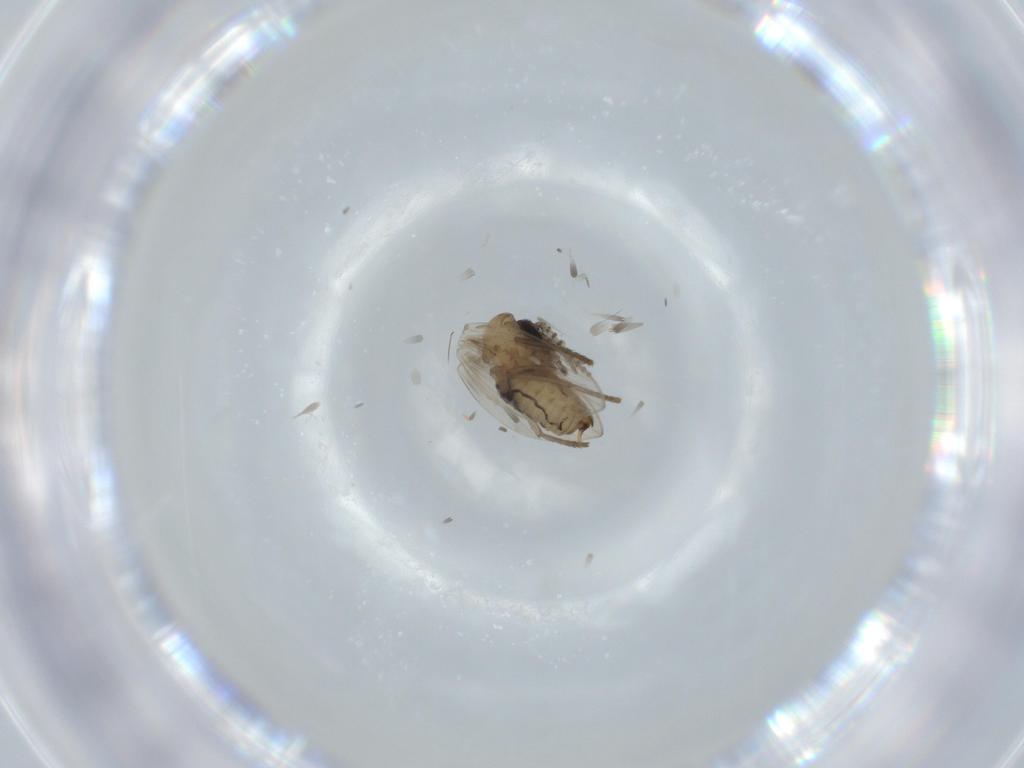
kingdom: Animalia
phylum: Arthropoda
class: Insecta
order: Diptera
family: Psychodidae
